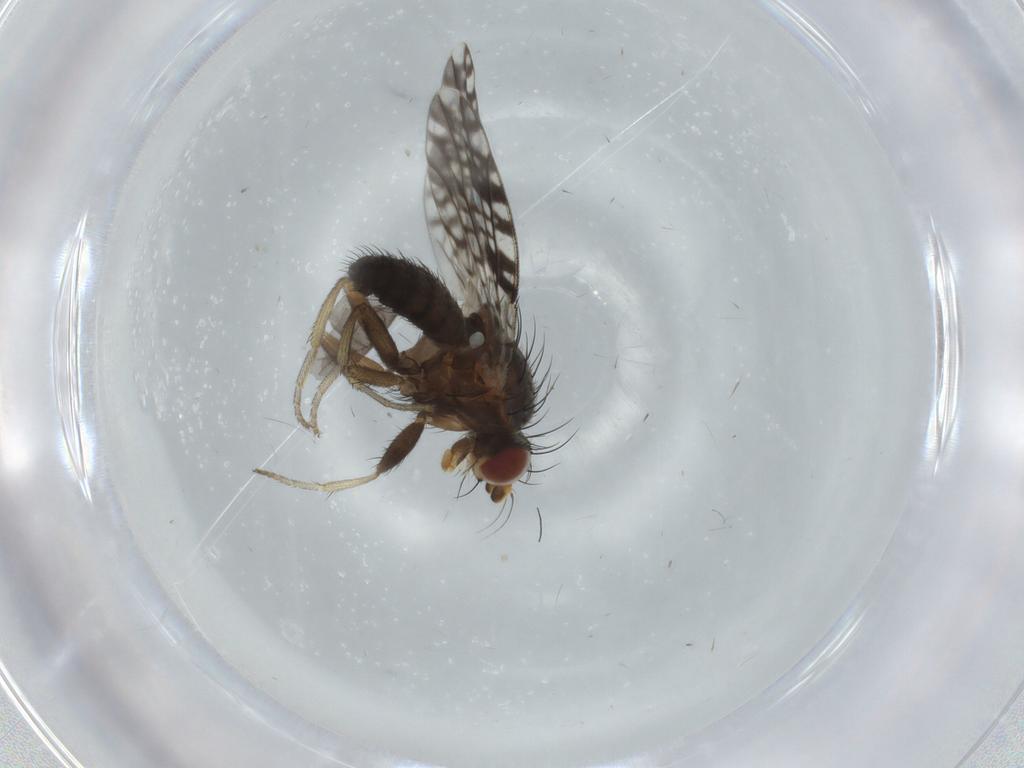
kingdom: Animalia
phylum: Arthropoda
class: Insecta
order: Diptera
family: Tephritidae
